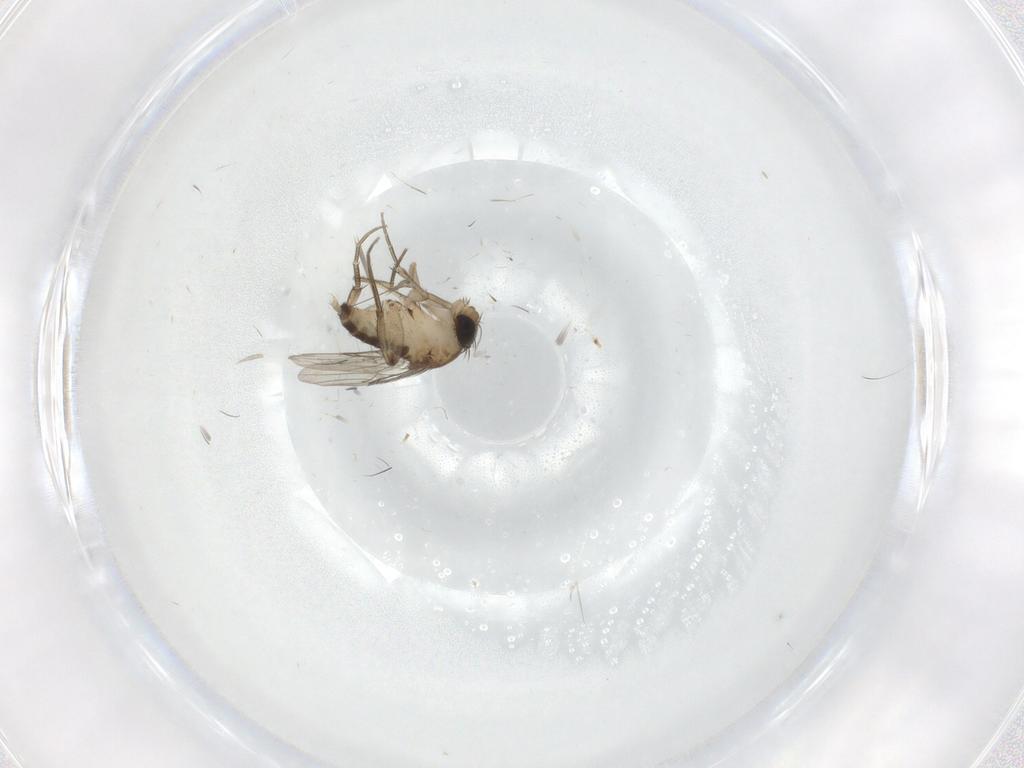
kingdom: Animalia
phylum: Arthropoda
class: Insecta
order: Diptera
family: Phoridae
